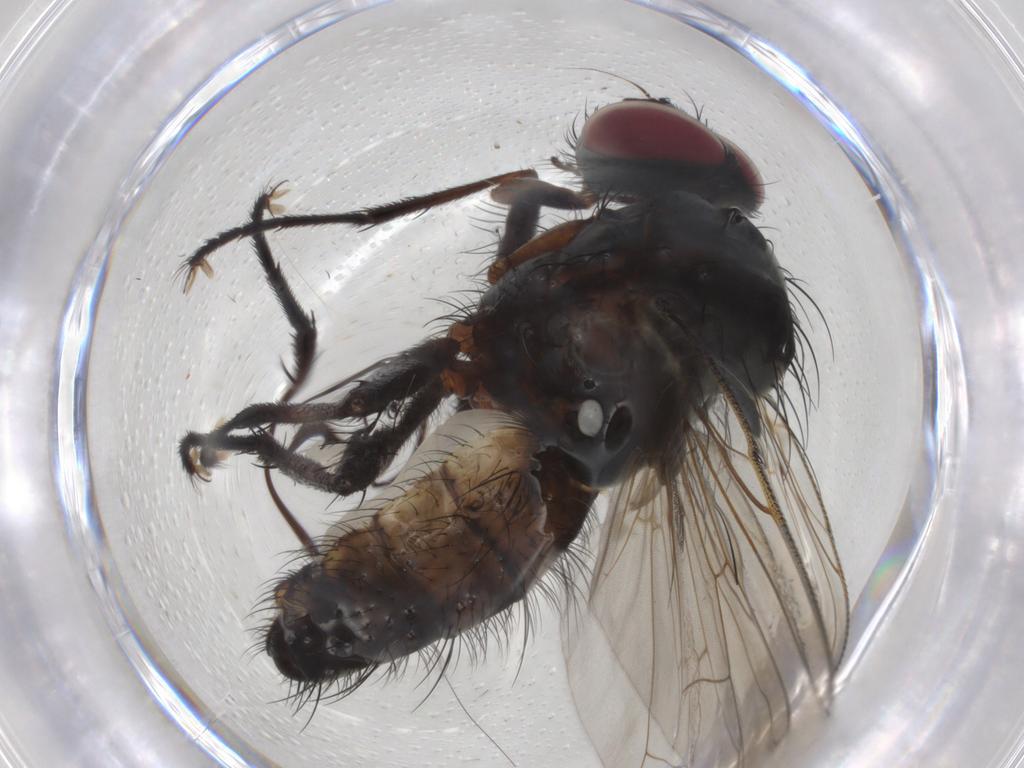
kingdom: Animalia
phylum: Arthropoda
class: Insecta
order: Diptera
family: Anthomyiidae
